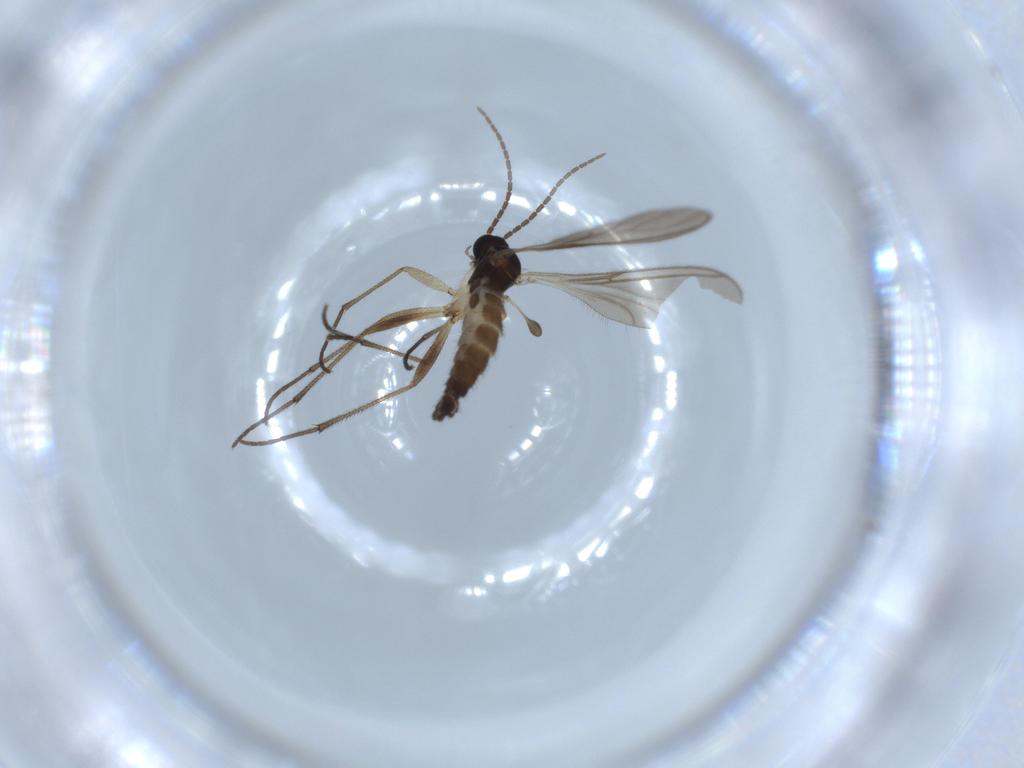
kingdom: Animalia
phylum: Arthropoda
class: Insecta
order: Diptera
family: Sciaridae
